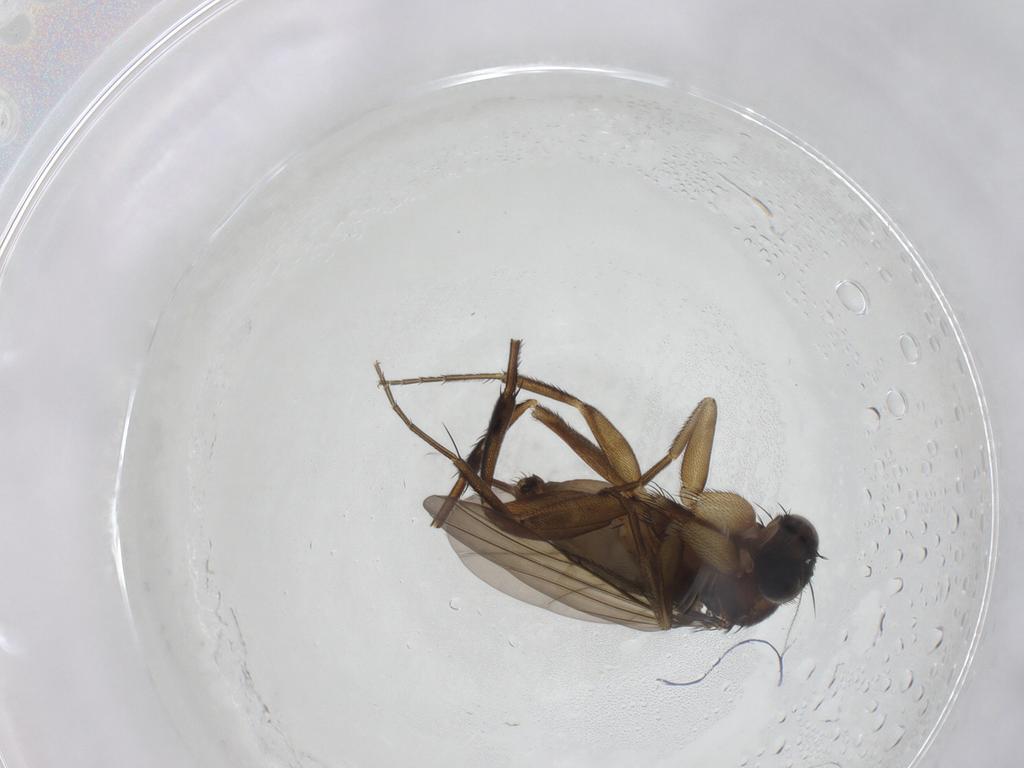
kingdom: Animalia
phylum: Arthropoda
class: Insecta
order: Diptera
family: Phoridae
